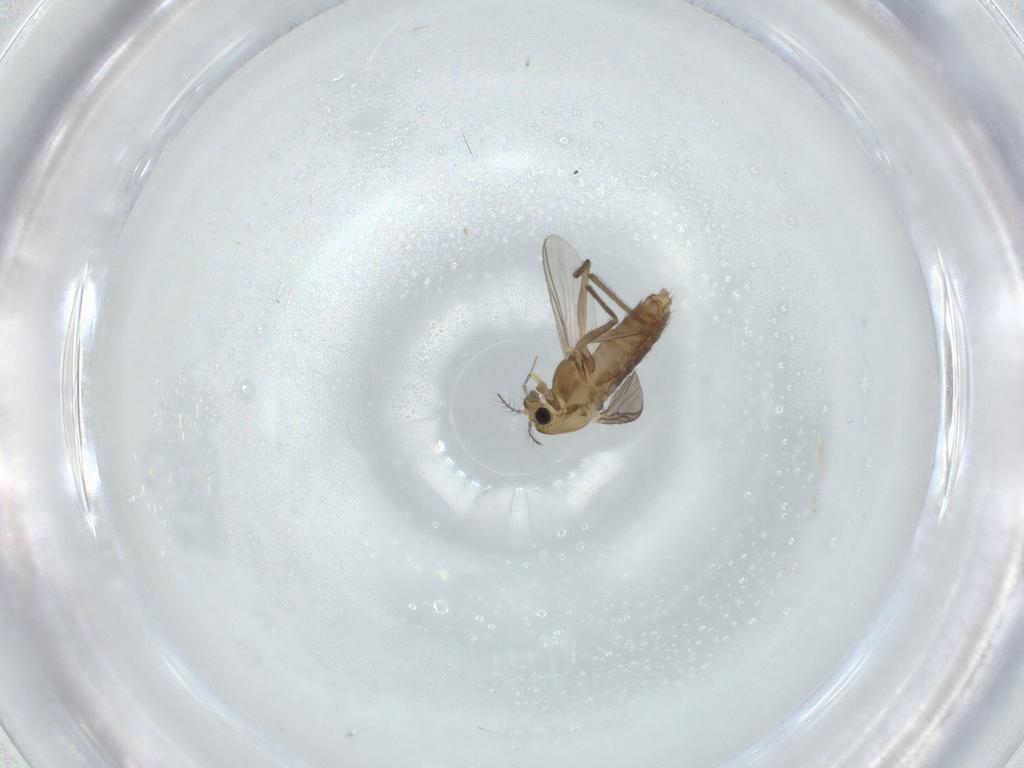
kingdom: Animalia
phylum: Arthropoda
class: Insecta
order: Diptera
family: Chironomidae
